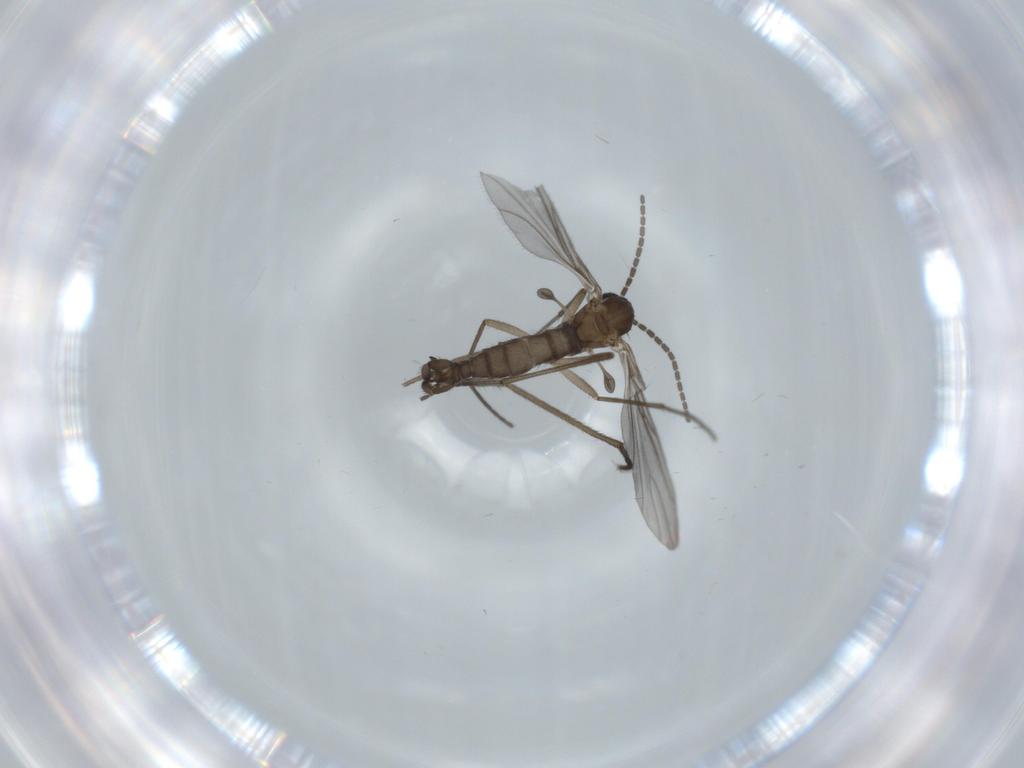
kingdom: Animalia
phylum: Arthropoda
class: Insecta
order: Diptera
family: Sciaridae
